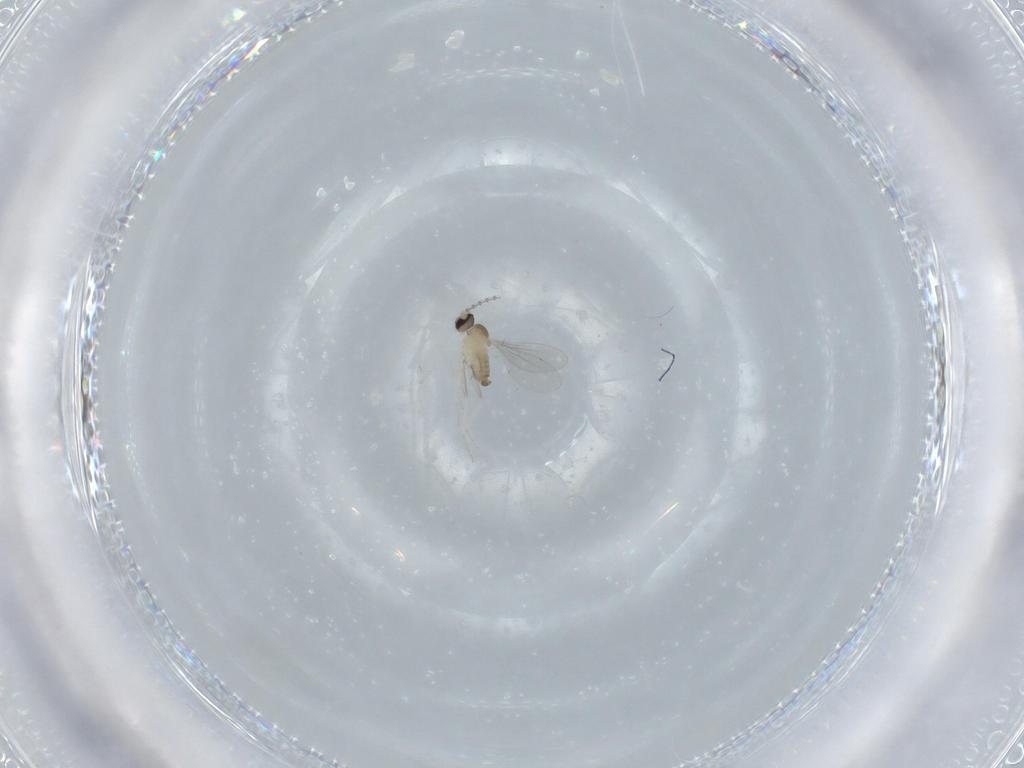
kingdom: Animalia
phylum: Arthropoda
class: Insecta
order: Diptera
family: Cecidomyiidae
